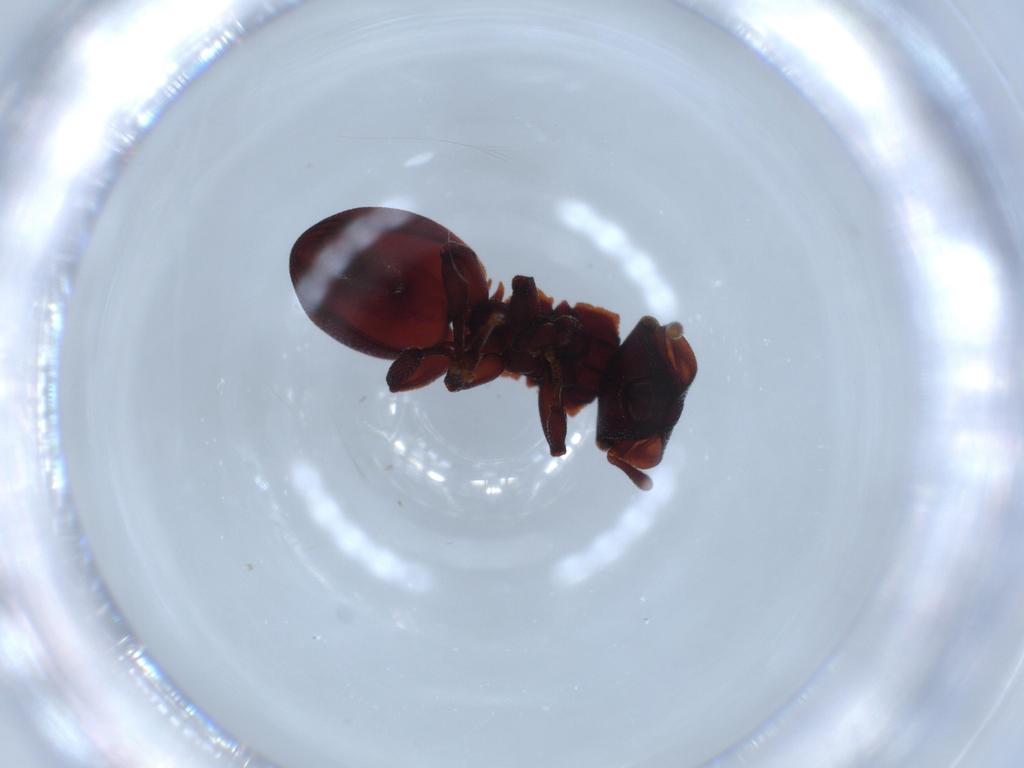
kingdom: Animalia
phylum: Arthropoda
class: Insecta
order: Hymenoptera
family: Formicidae
